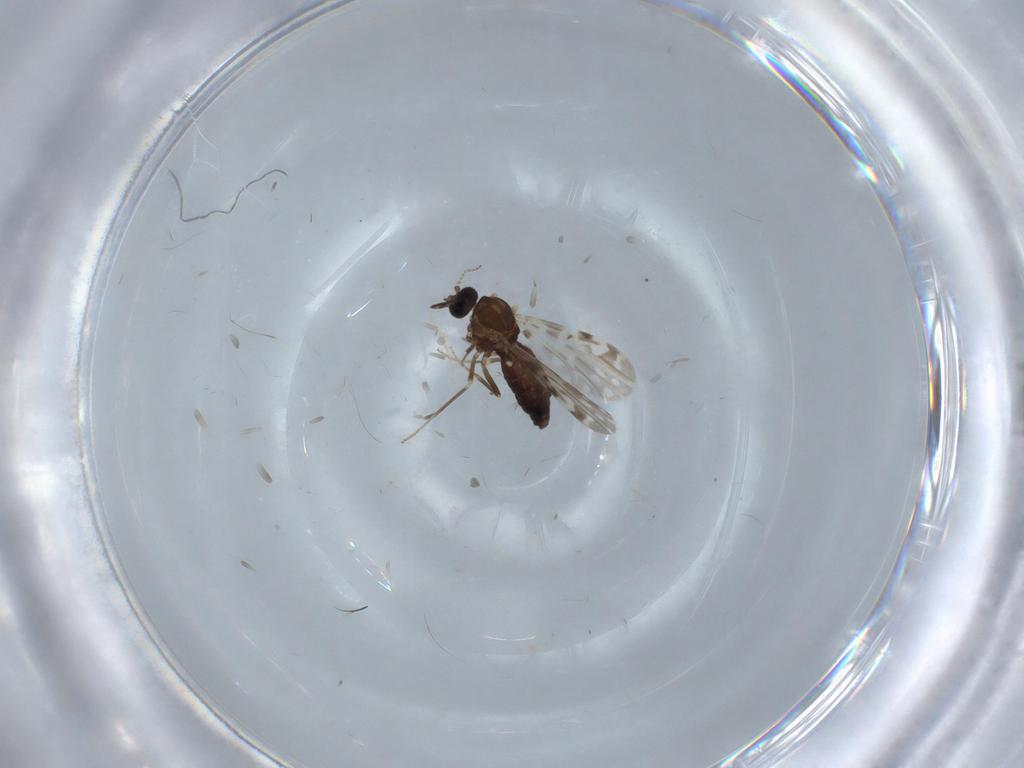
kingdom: Animalia
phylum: Arthropoda
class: Insecta
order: Diptera
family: Ceratopogonidae
